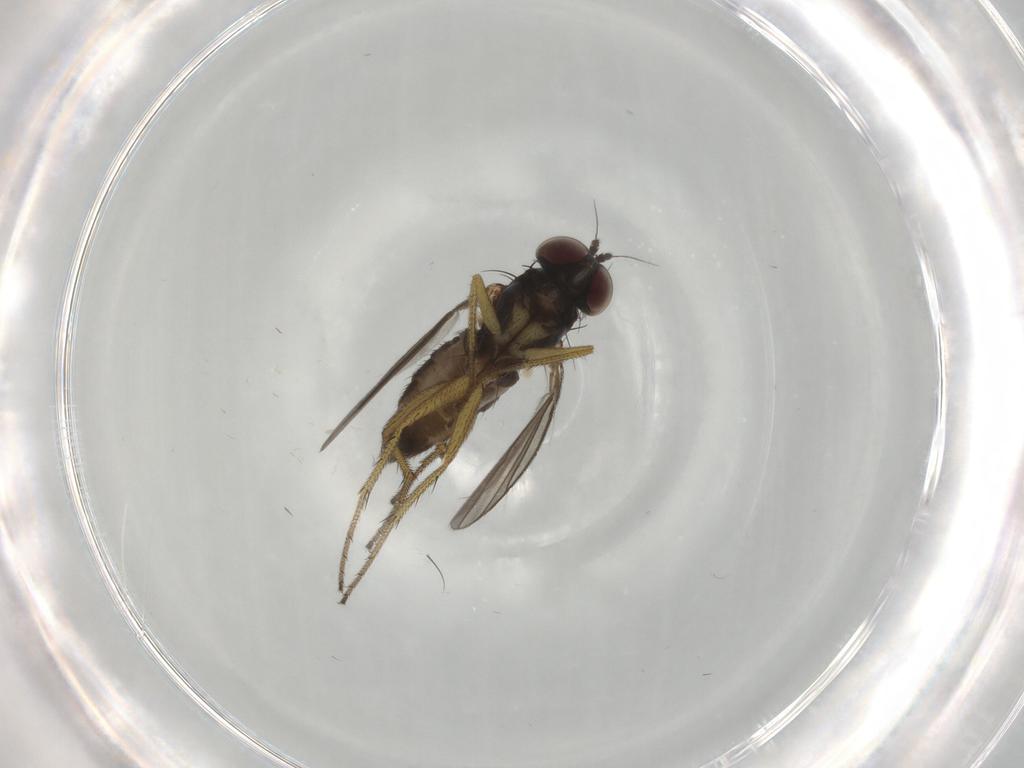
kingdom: Animalia
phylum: Arthropoda
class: Insecta
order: Diptera
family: Dolichopodidae
